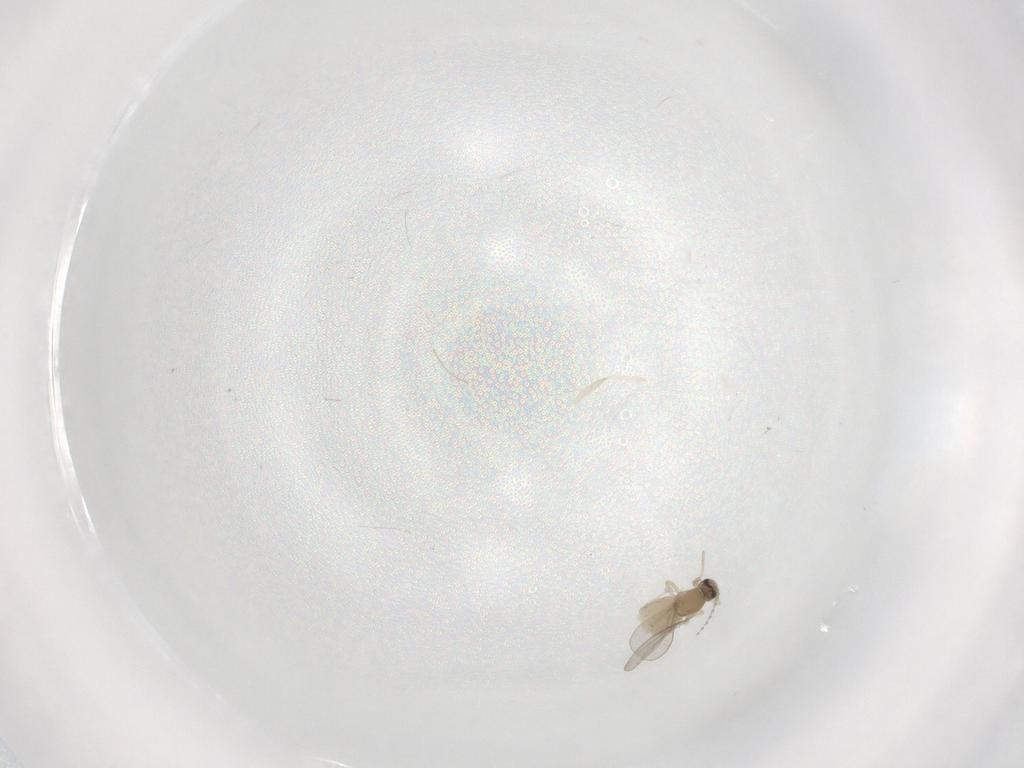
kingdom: Animalia
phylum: Arthropoda
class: Insecta
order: Diptera
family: Cecidomyiidae
